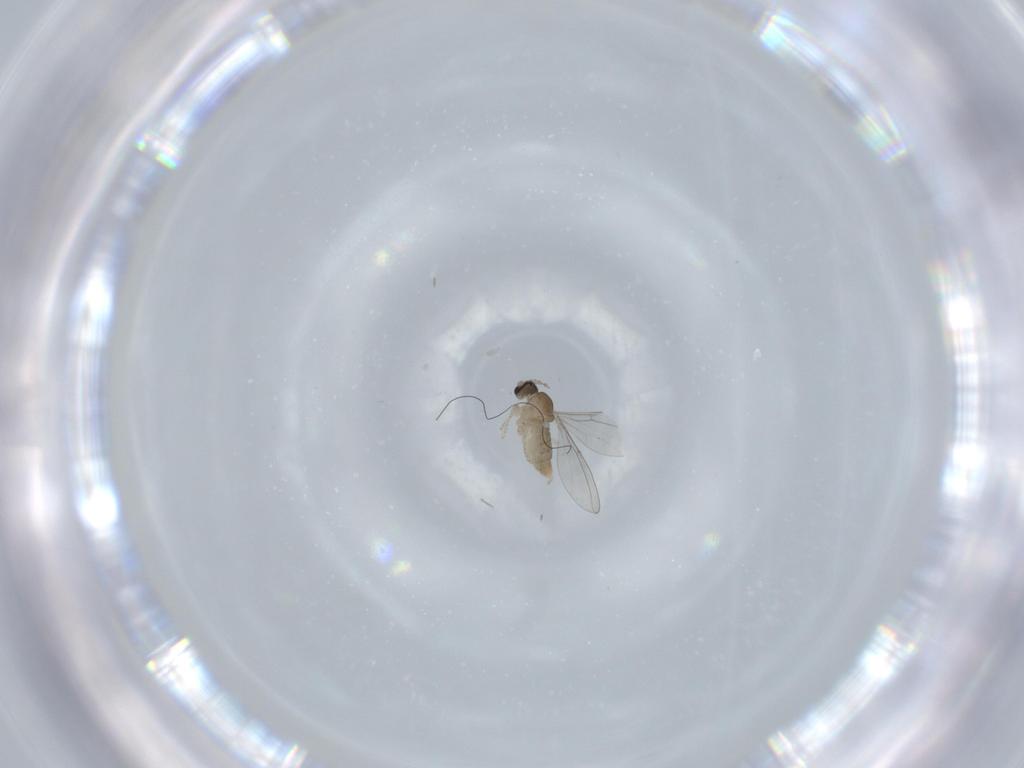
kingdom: Animalia
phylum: Arthropoda
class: Insecta
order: Diptera
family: Cecidomyiidae
